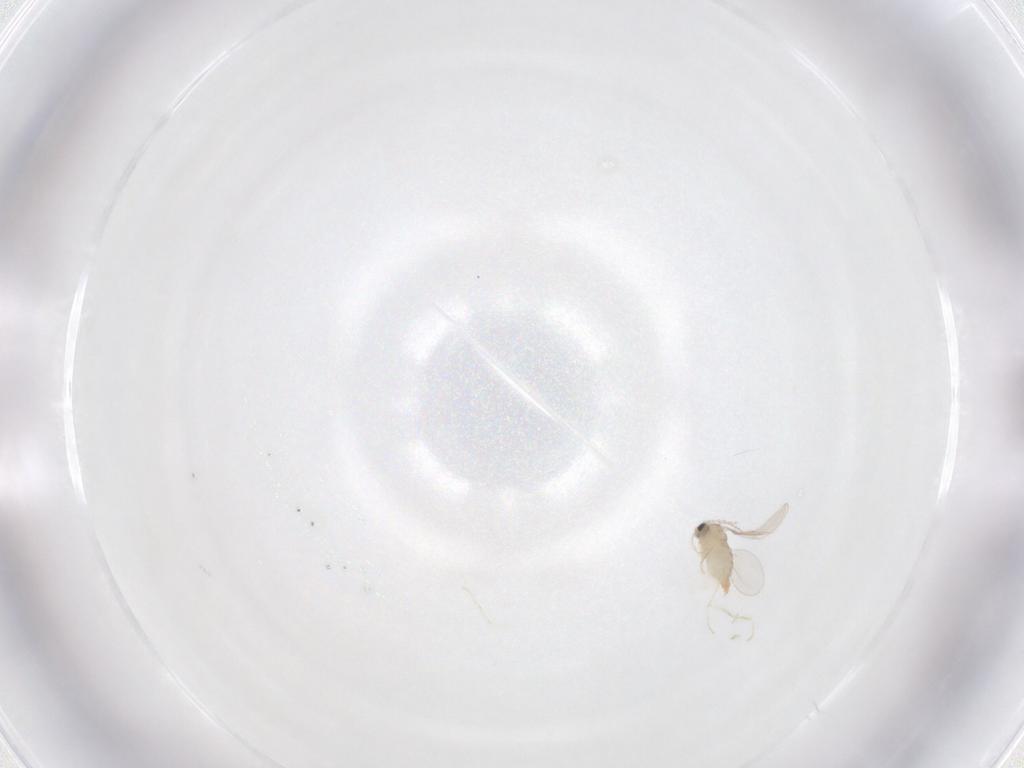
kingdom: Animalia
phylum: Arthropoda
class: Insecta
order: Diptera
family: Cecidomyiidae
